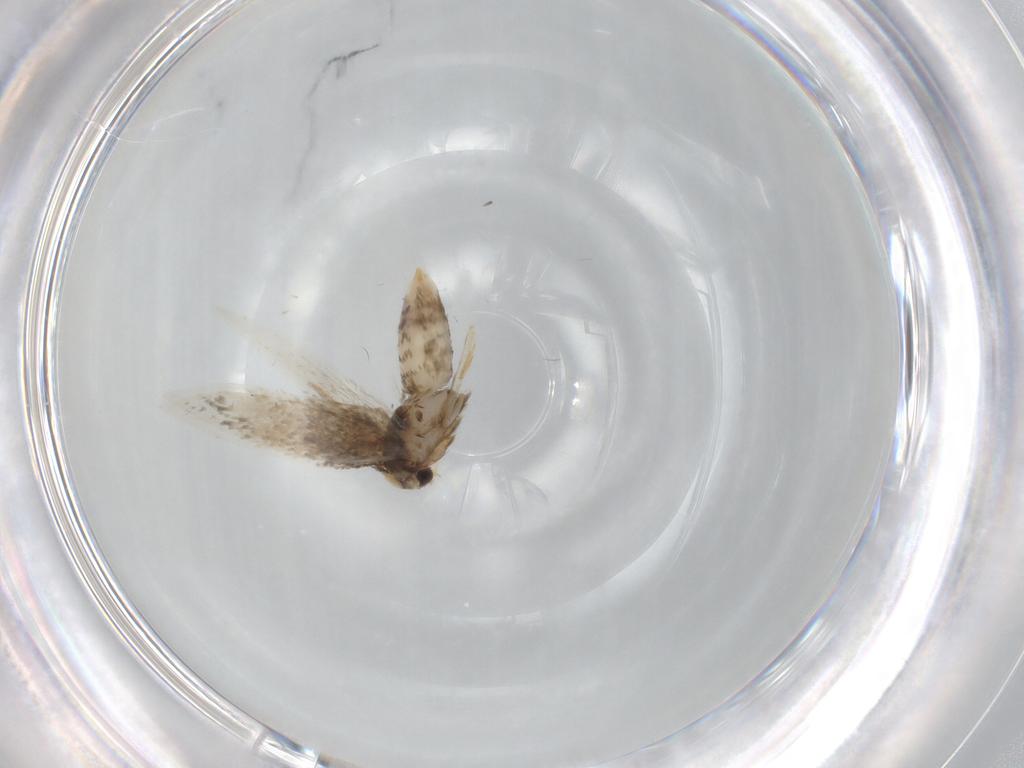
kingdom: Animalia
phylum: Arthropoda
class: Insecta
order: Lepidoptera
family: Nepticulidae
